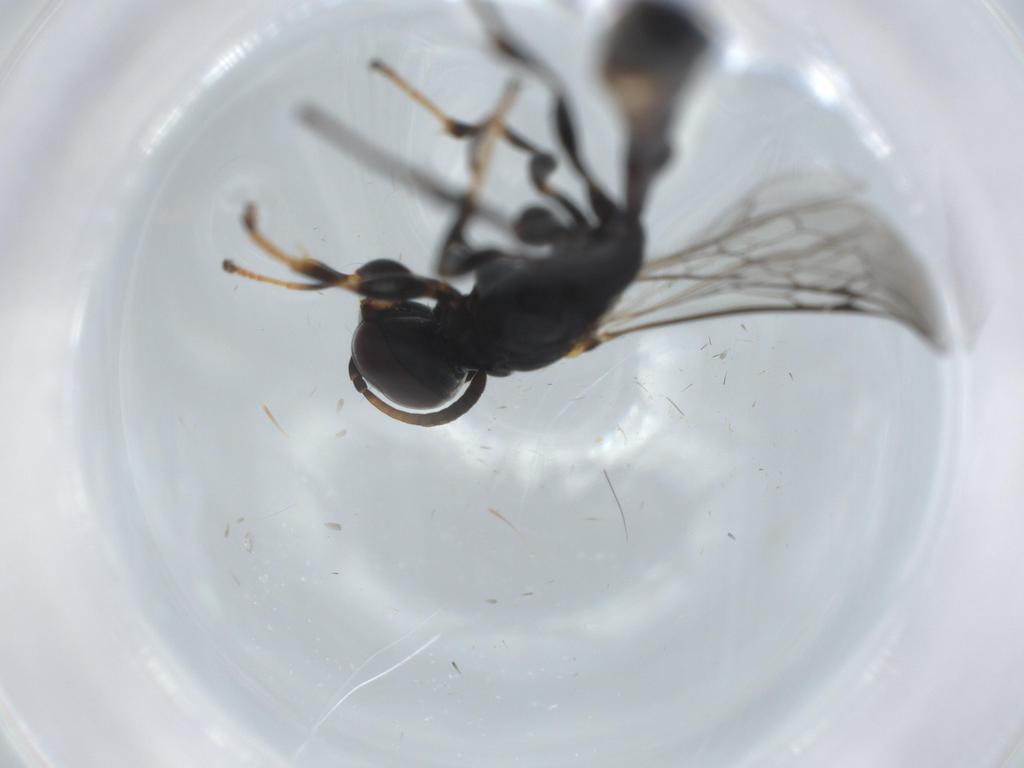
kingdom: Animalia
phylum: Arthropoda
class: Insecta
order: Hymenoptera
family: Crabronidae
